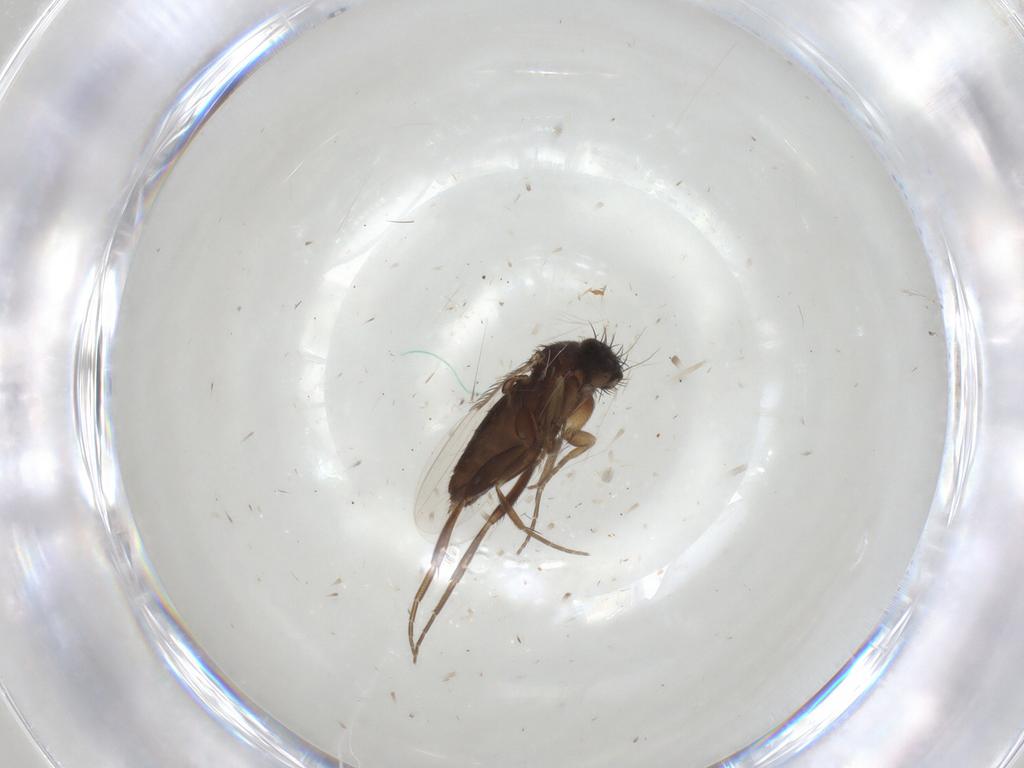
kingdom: Animalia
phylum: Arthropoda
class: Insecta
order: Diptera
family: Phoridae
